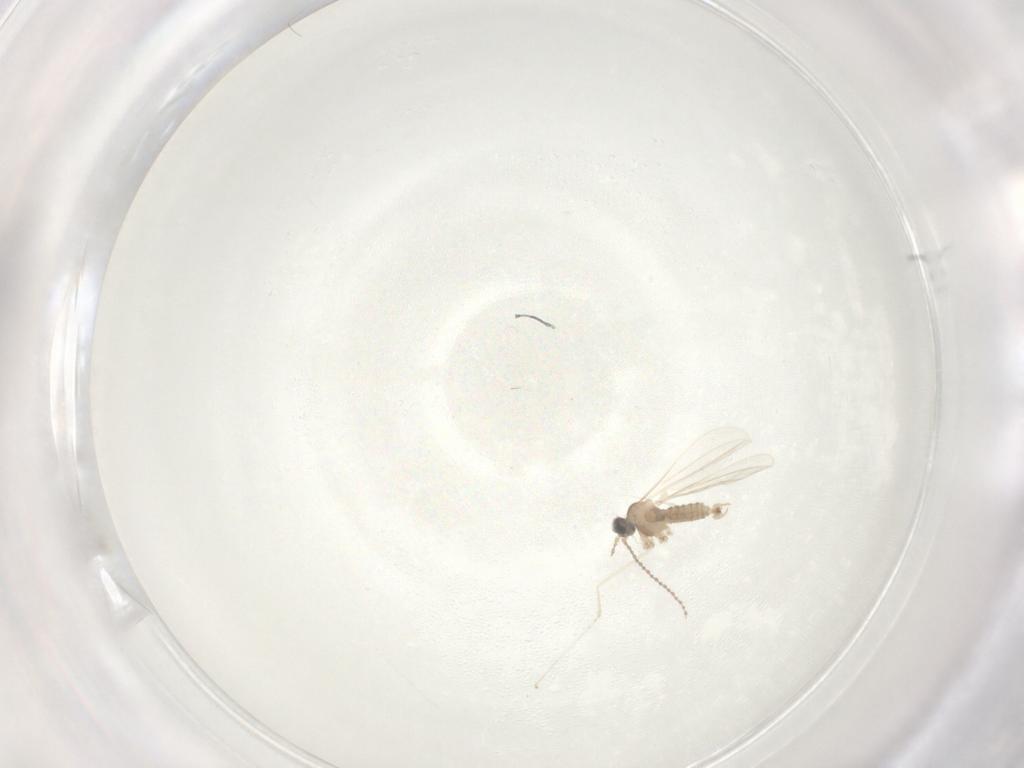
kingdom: Animalia
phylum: Arthropoda
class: Insecta
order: Diptera
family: Cecidomyiidae
